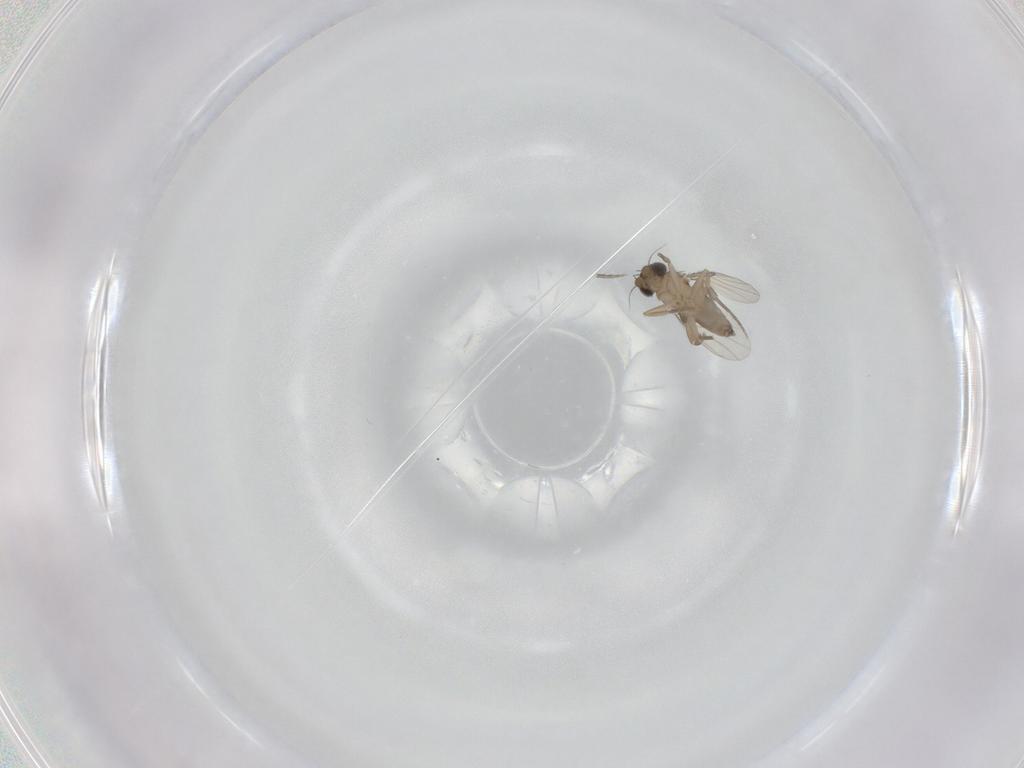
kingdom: Animalia
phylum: Arthropoda
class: Insecta
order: Diptera
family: Phoridae
